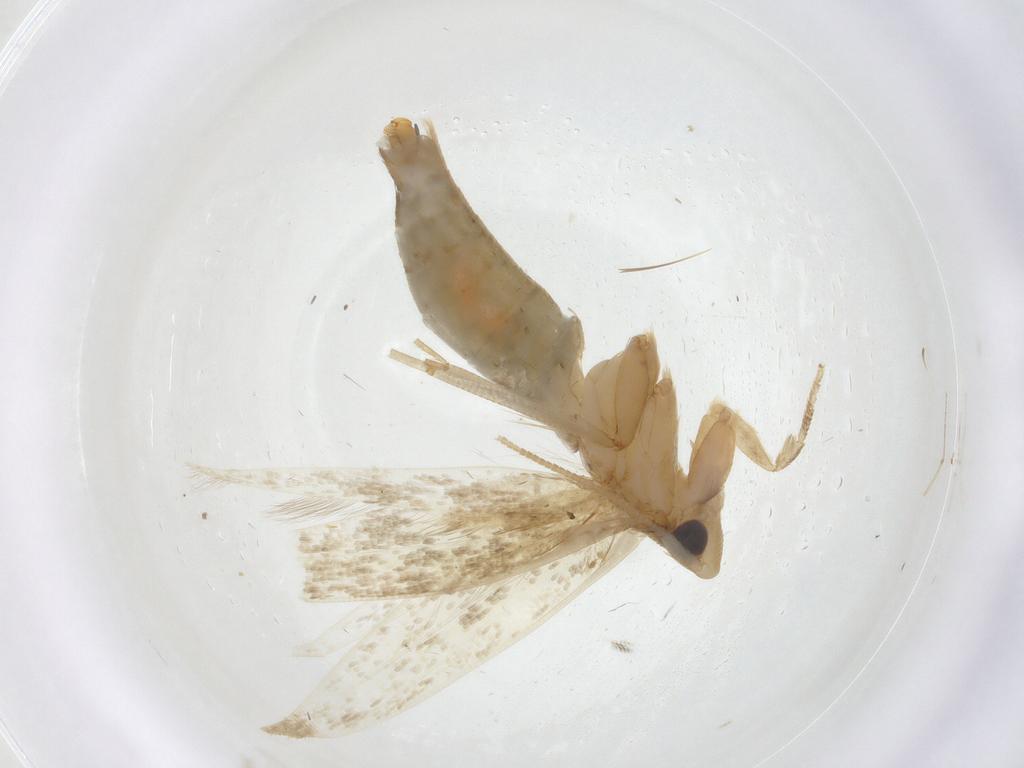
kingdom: Animalia
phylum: Arthropoda
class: Insecta
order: Lepidoptera
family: Tineidae
